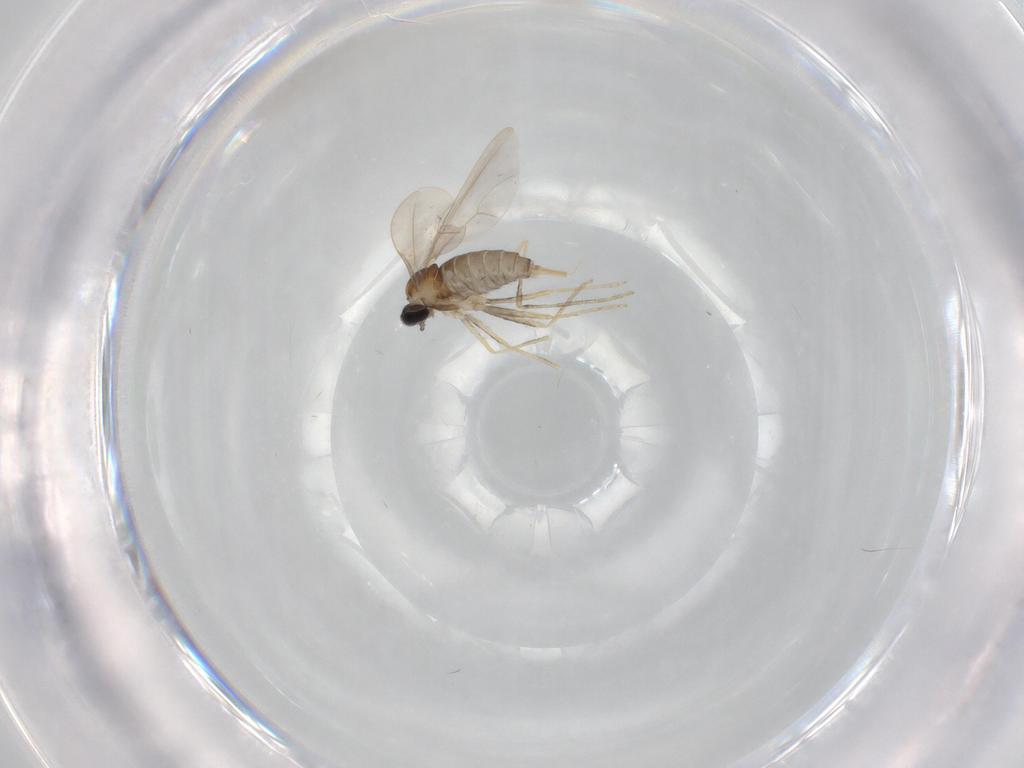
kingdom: Animalia
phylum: Arthropoda
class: Insecta
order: Diptera
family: Cecidomyiidae
